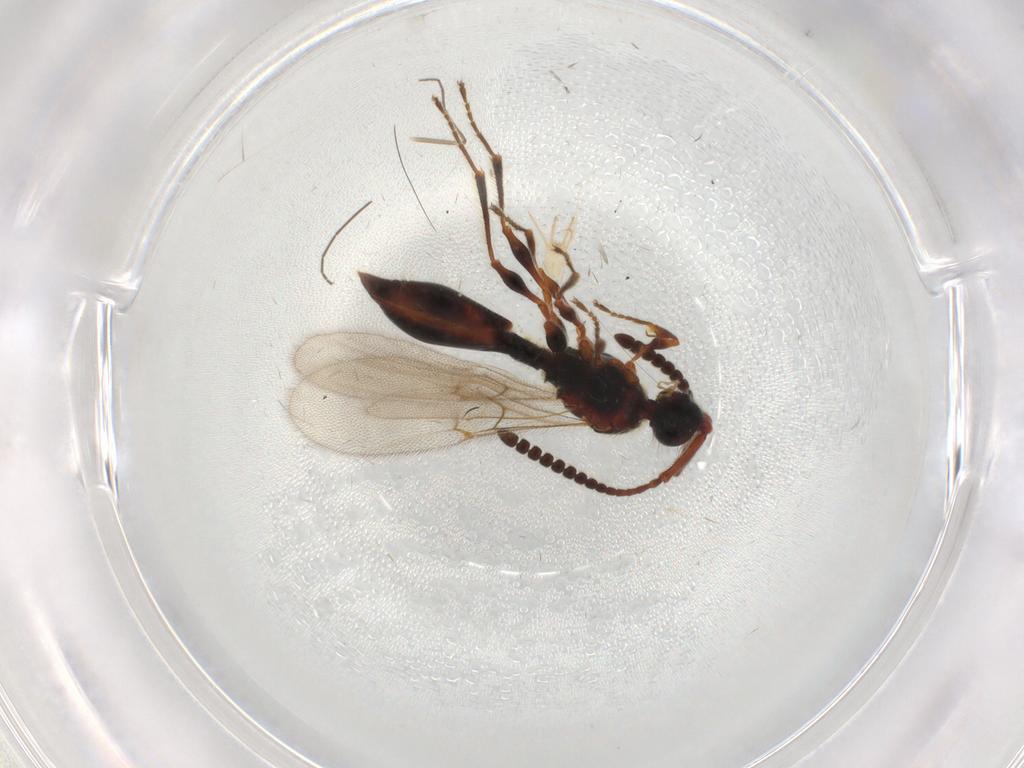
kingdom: Animalia
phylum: Arthropoda
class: Insecta
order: Hymenoptera
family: Diapriidae
